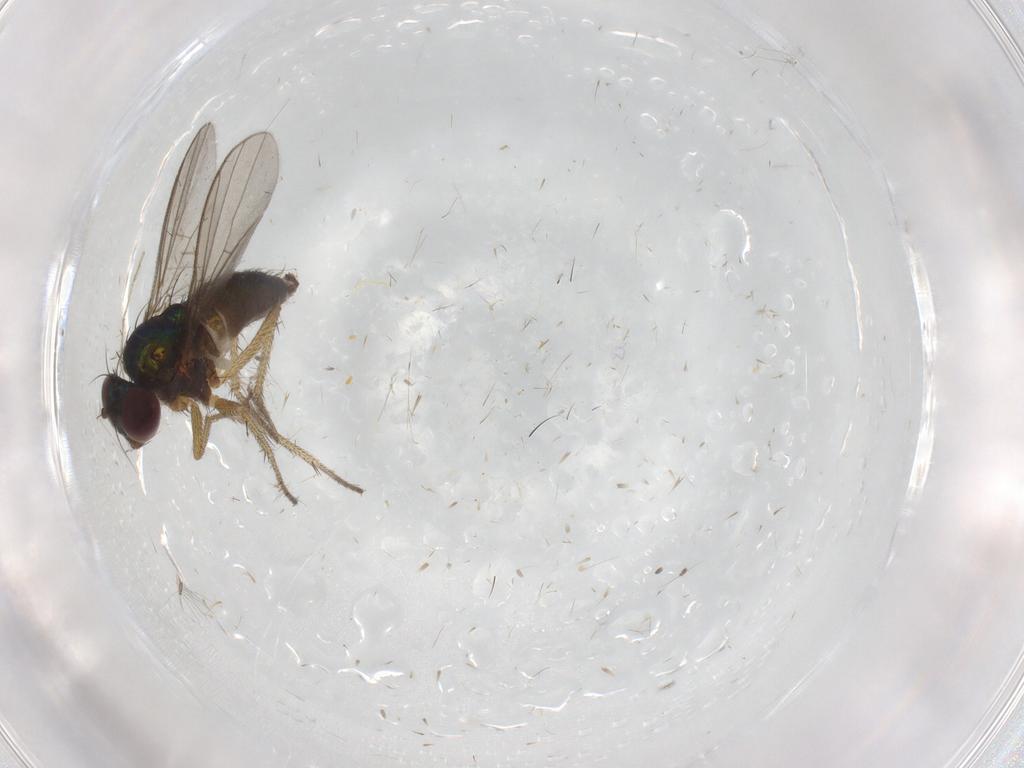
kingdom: Animalia
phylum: Arthropoda
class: Insecta
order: Diptera
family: Chironomidae
